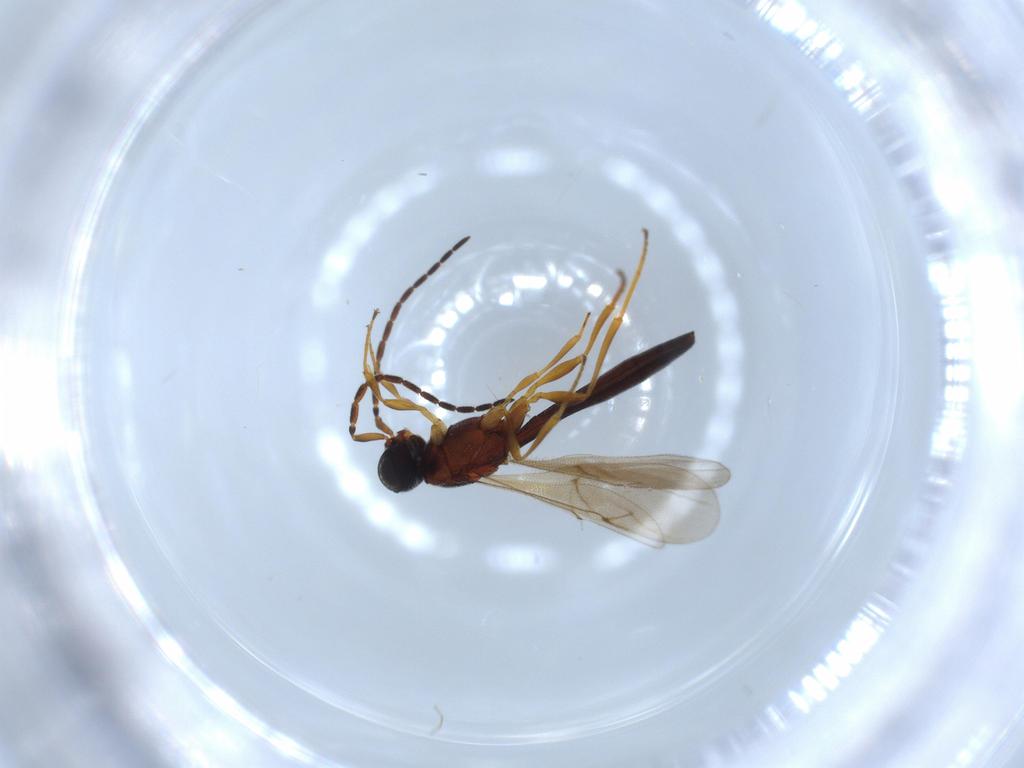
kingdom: Animalia
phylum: Arthropoda
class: Insecta
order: Hymenoptera
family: Scelionidae
